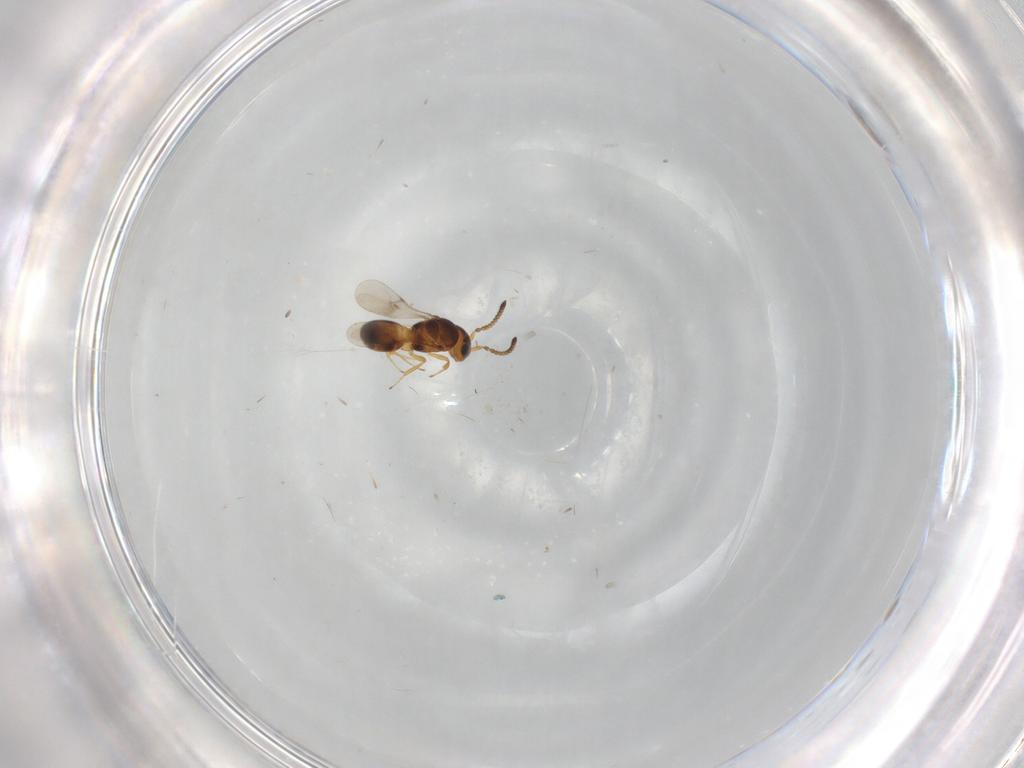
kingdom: Animalia
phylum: Arthropoda
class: Insecta
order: Hymenoptera
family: Scelionidae
